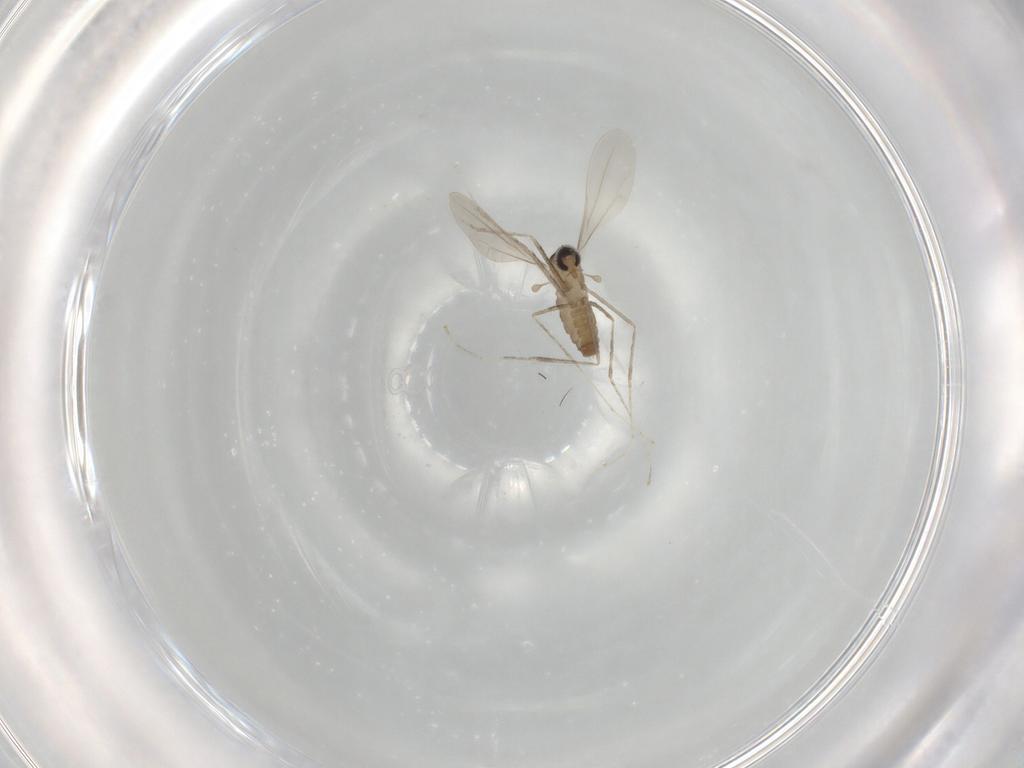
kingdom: Animalia
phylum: Arthropoda
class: Insecta
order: Diptera
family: Cecidomyiidae
